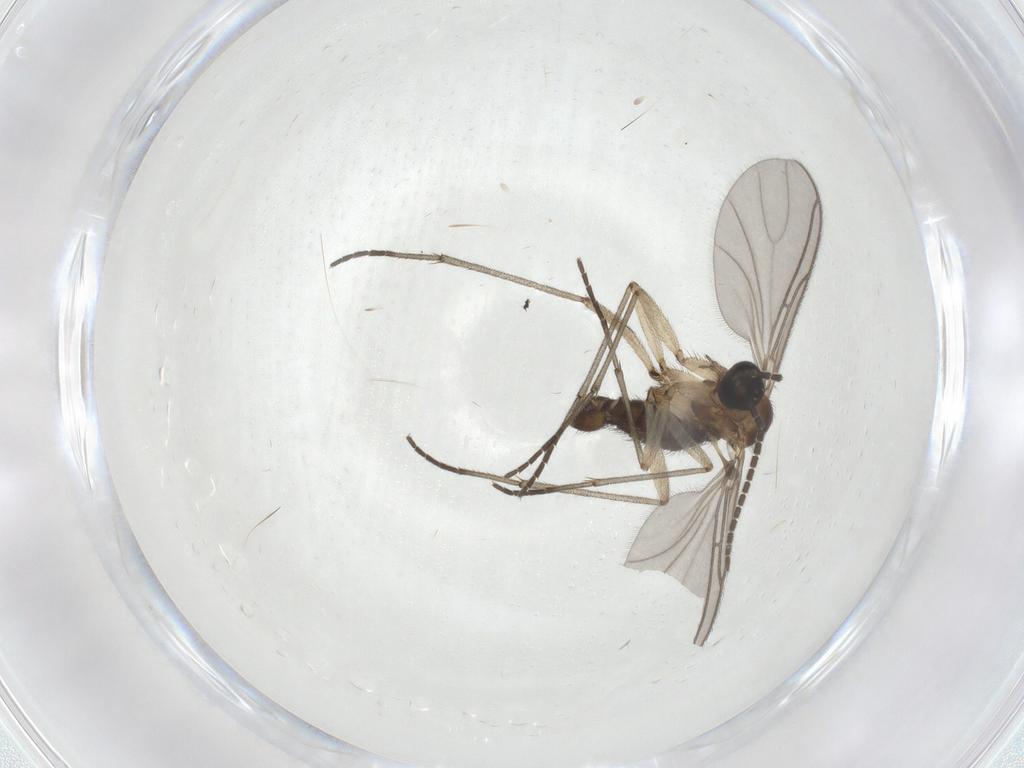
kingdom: Animalia
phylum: Arthropoda
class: Insecta
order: Diptera
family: Sciaridae
